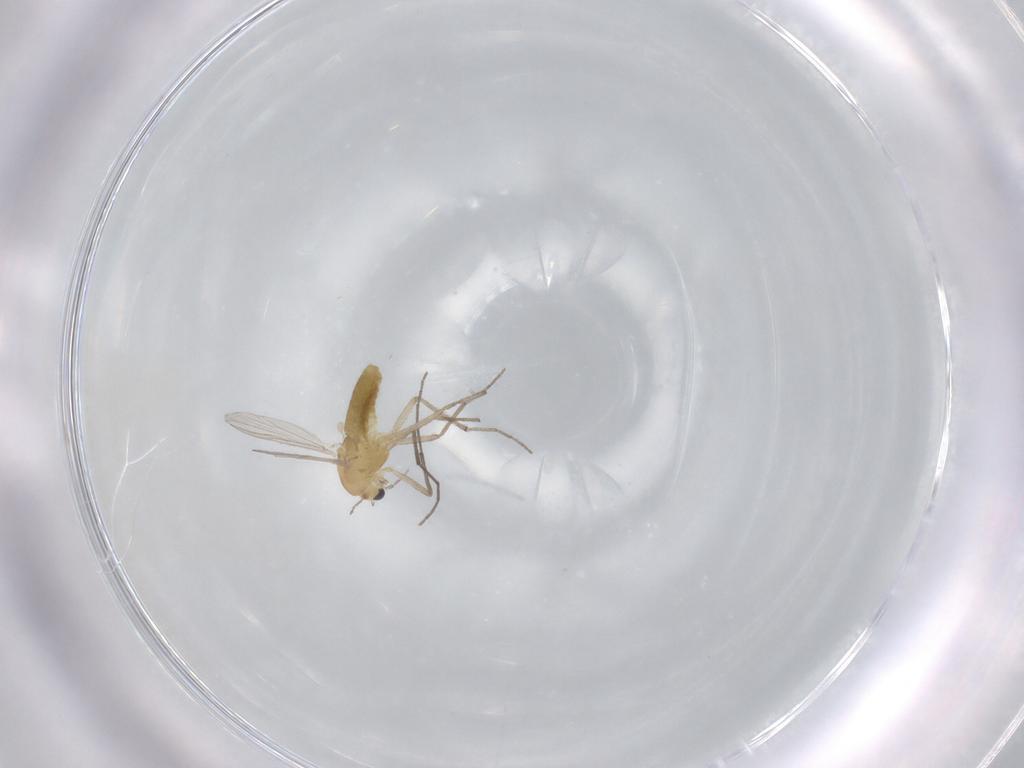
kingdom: Animalia
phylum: Arthropoda
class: Insecta
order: Diptera
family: Chironomidae
